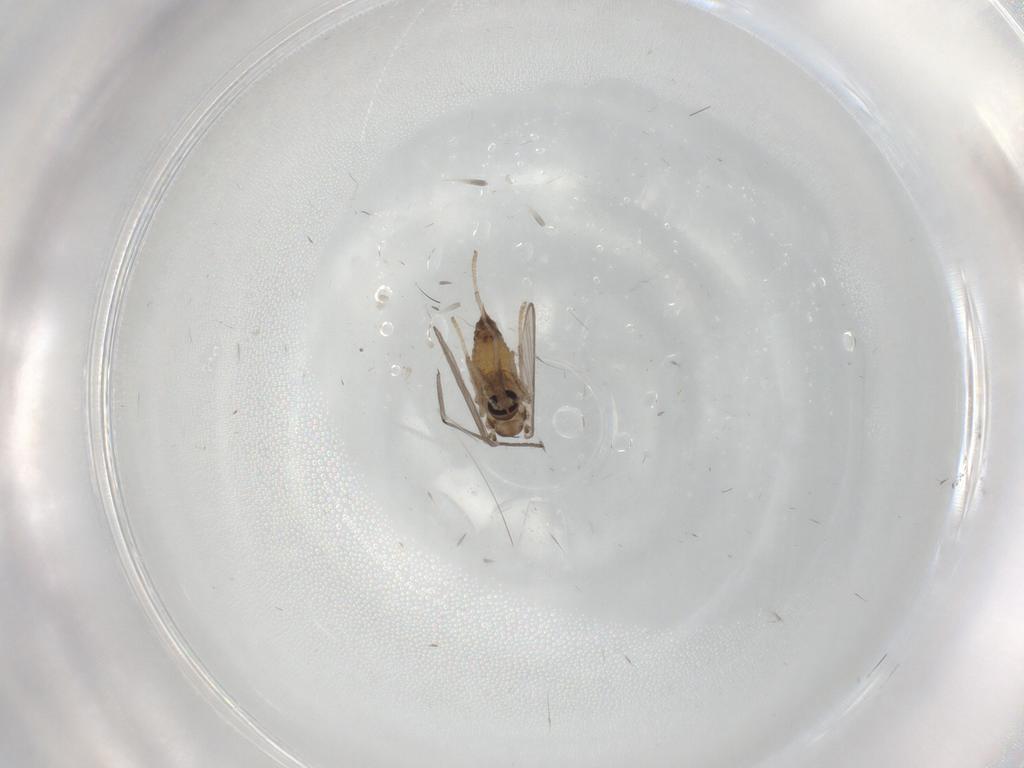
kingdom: Animalia
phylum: Arthropoda
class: Insecta
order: Diptera
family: Psychodidae
